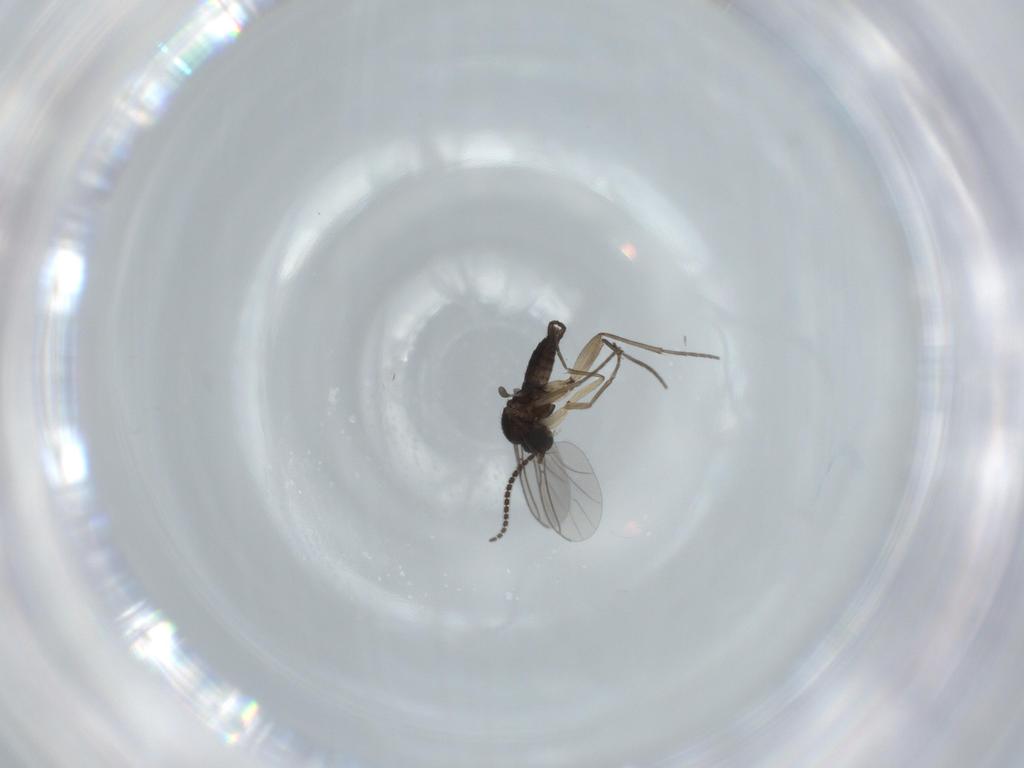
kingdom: Animalia
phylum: Arthropoda
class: Insecta
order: Diptera
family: Sciaridae
